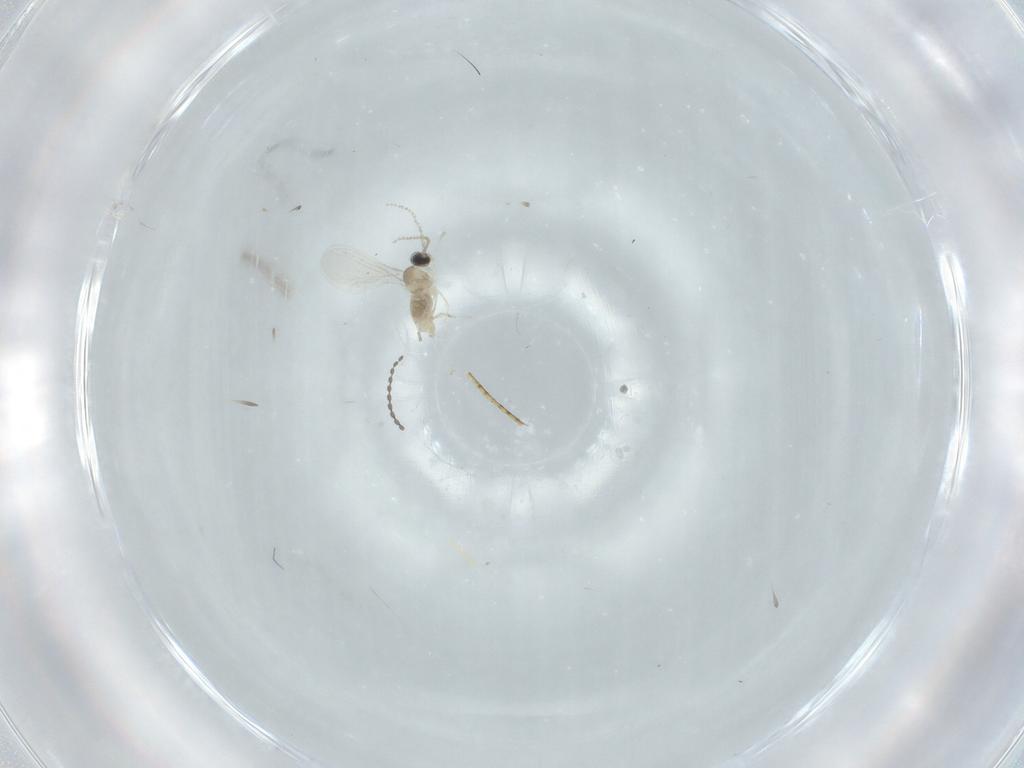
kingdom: Animalia
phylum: Arthropoda
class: Insecta
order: Diptera
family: Cecidomyiidae
